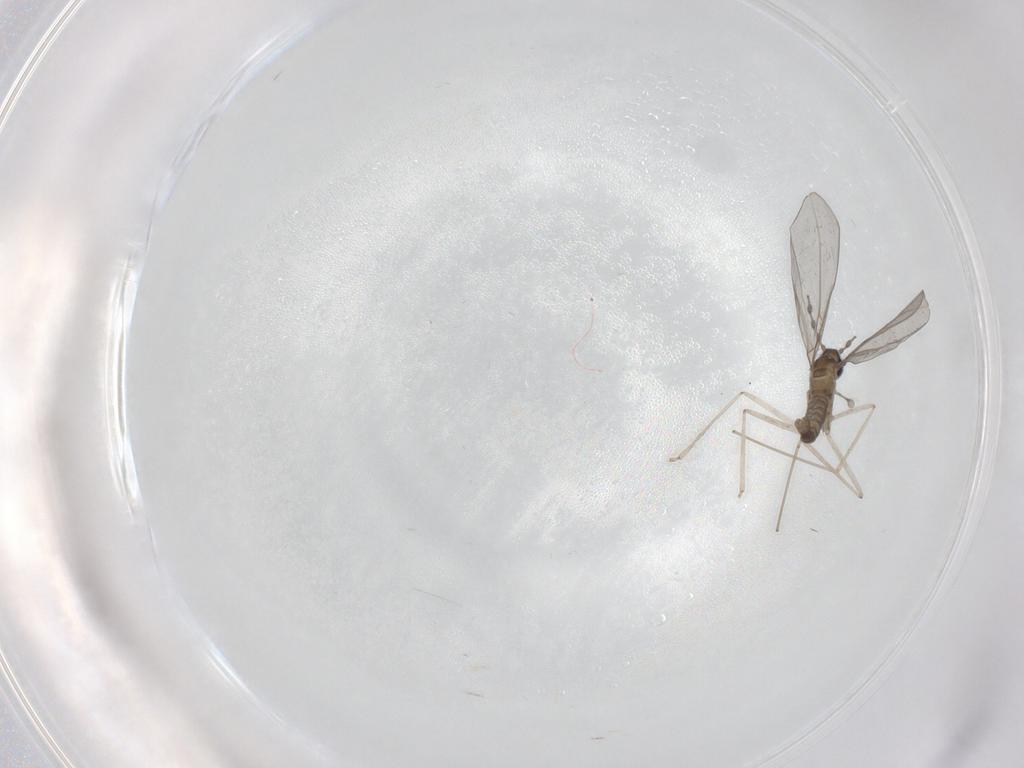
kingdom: Animalia
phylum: Arthropoda
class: Insecta
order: Diptera
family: Cecidomyiidae
